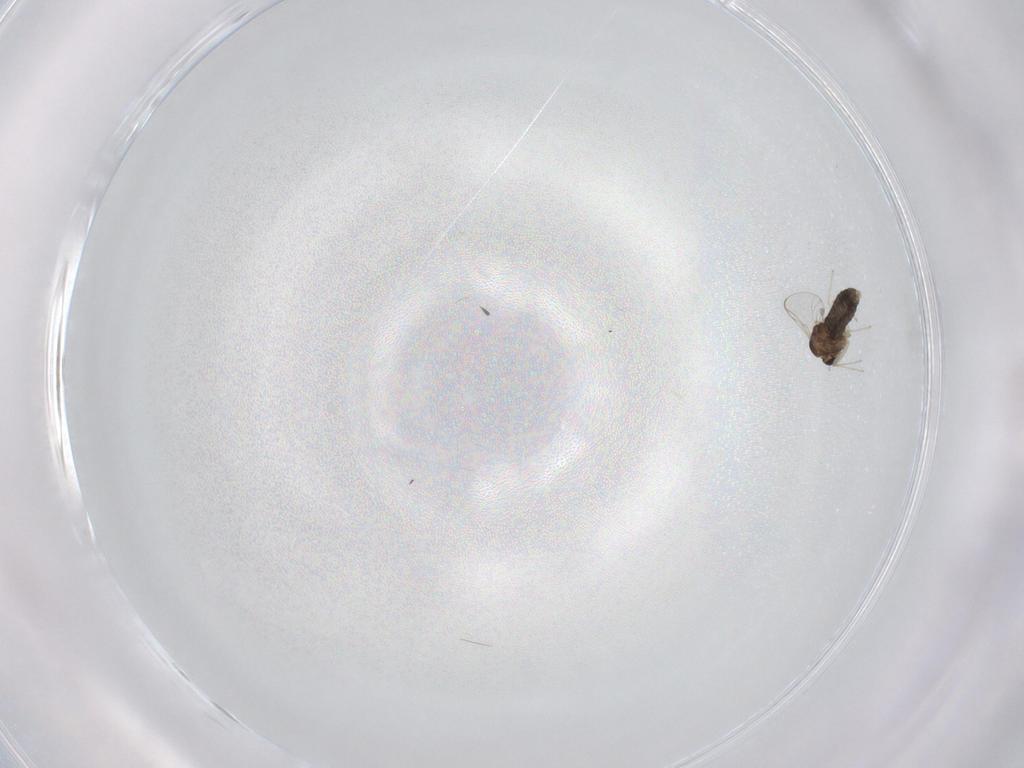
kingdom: Animalia
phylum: Arthropoda
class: Insecta
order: Diptera
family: Chironomidae
